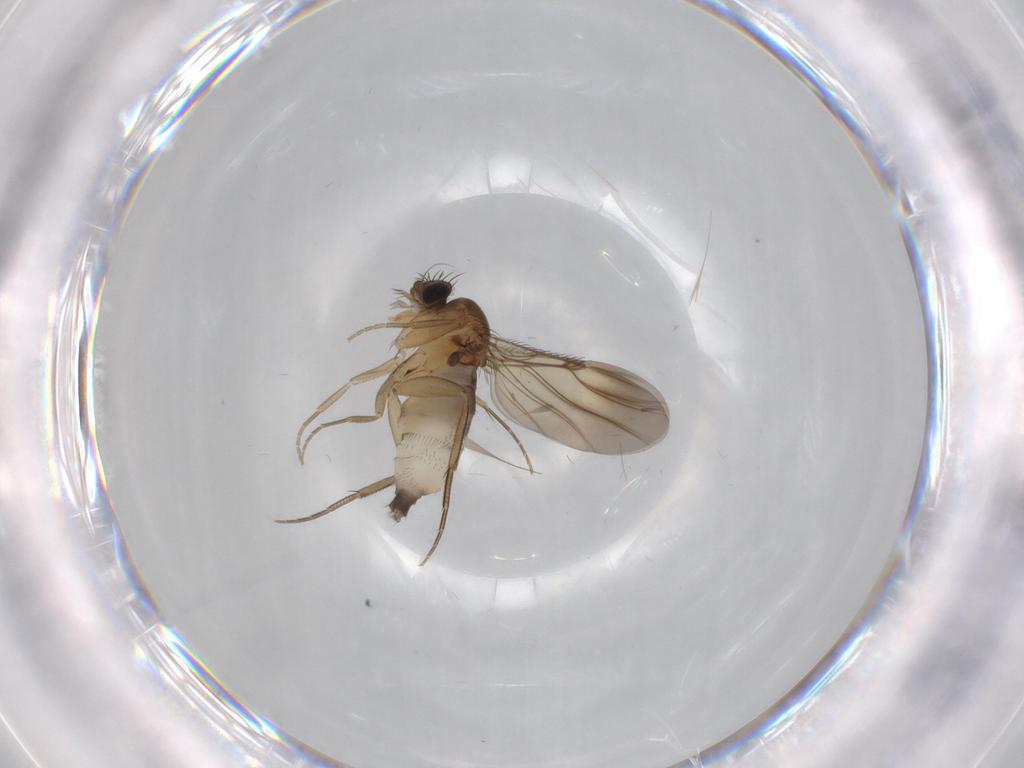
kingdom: Animalia
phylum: Arthropoda
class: Insecta
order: Diptera
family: Phoridae
